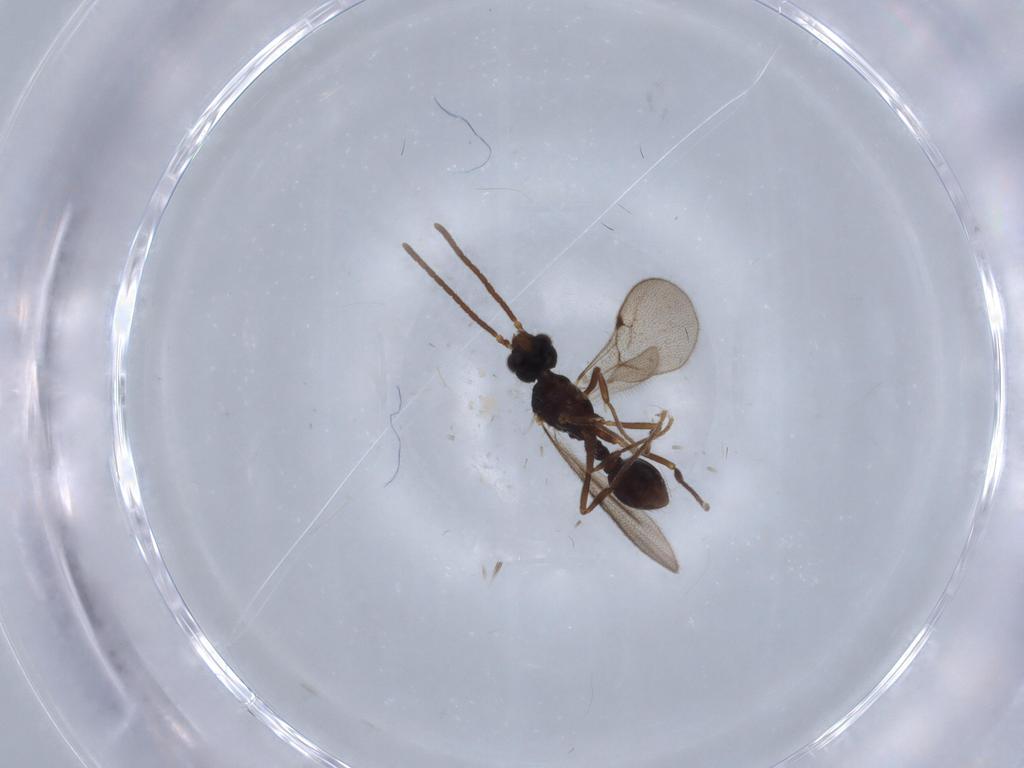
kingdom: Animalia
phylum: Arthropoda
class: Insecta
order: Hymenoptera
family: Formicidae
